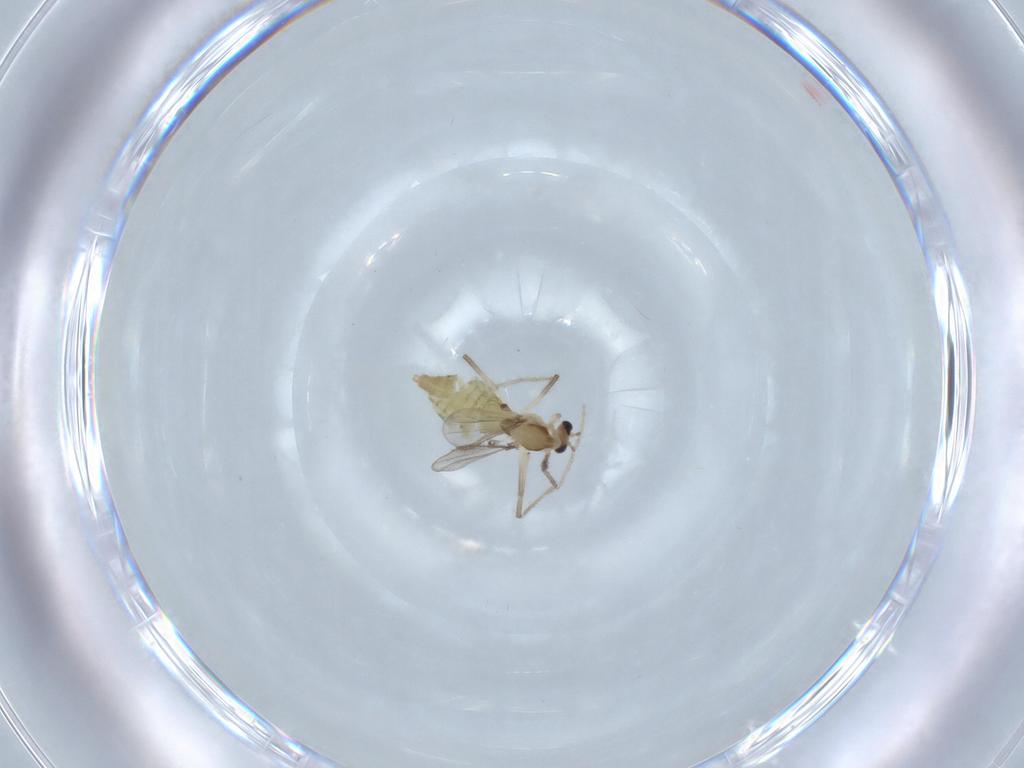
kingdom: Animalia
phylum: Arthropoda
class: Insecta
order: Diptera
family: Chironomidae
